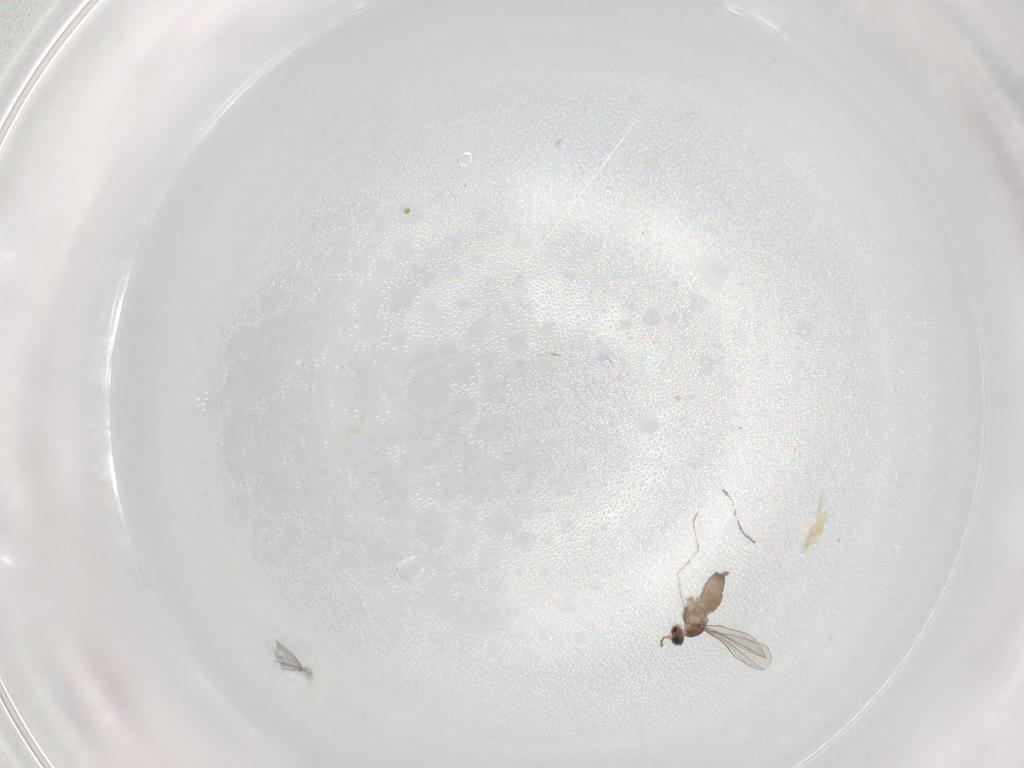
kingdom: Animalia
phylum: Arthropoda
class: Insecta
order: Diptera
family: Cecidomyiidae
